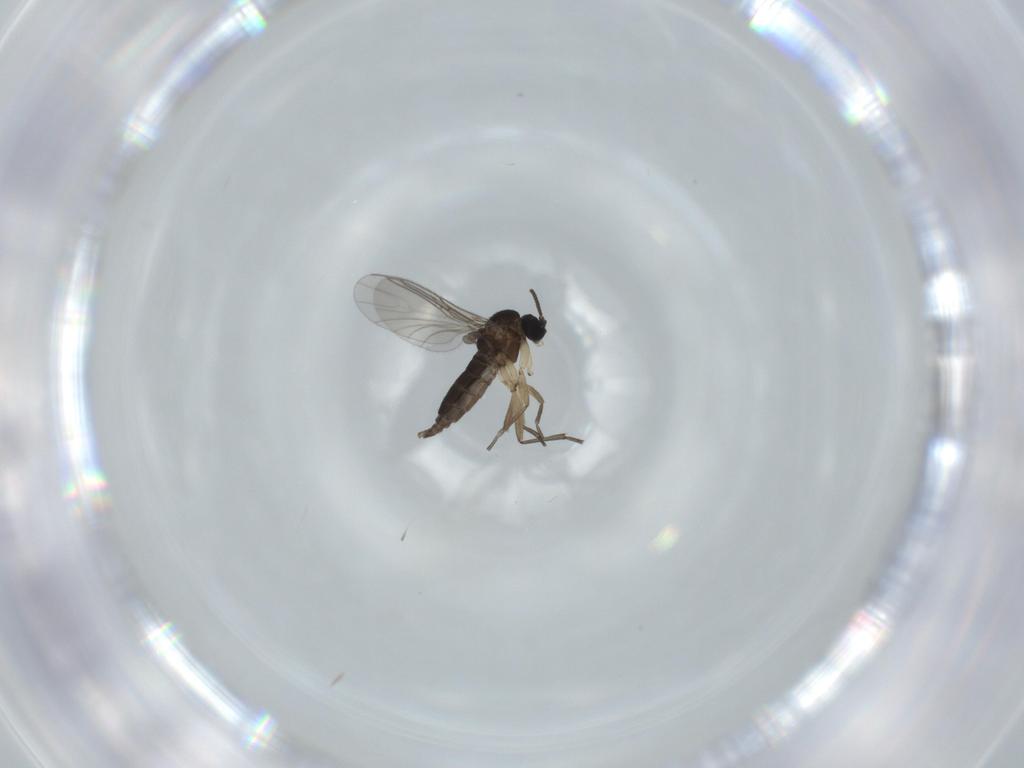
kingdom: Animalia
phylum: Arthropoda
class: Insecta
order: Diptera
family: Sciaridae
